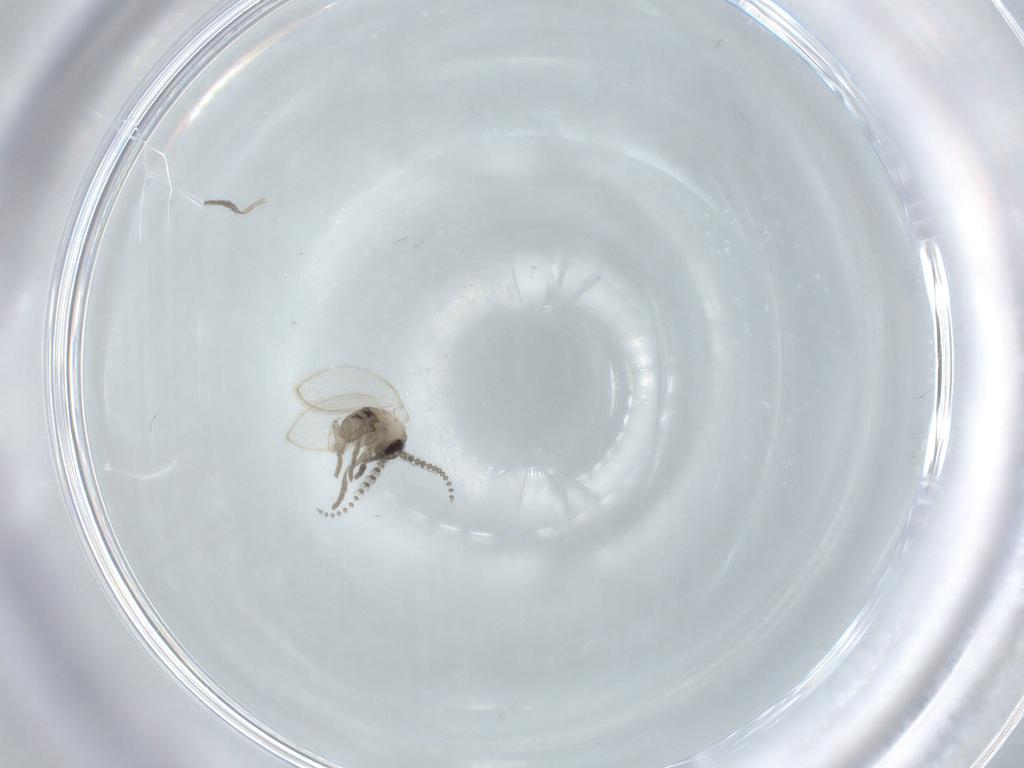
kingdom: Animalia
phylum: Arthropoda
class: Insecta
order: Diptera
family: Psychodidae
